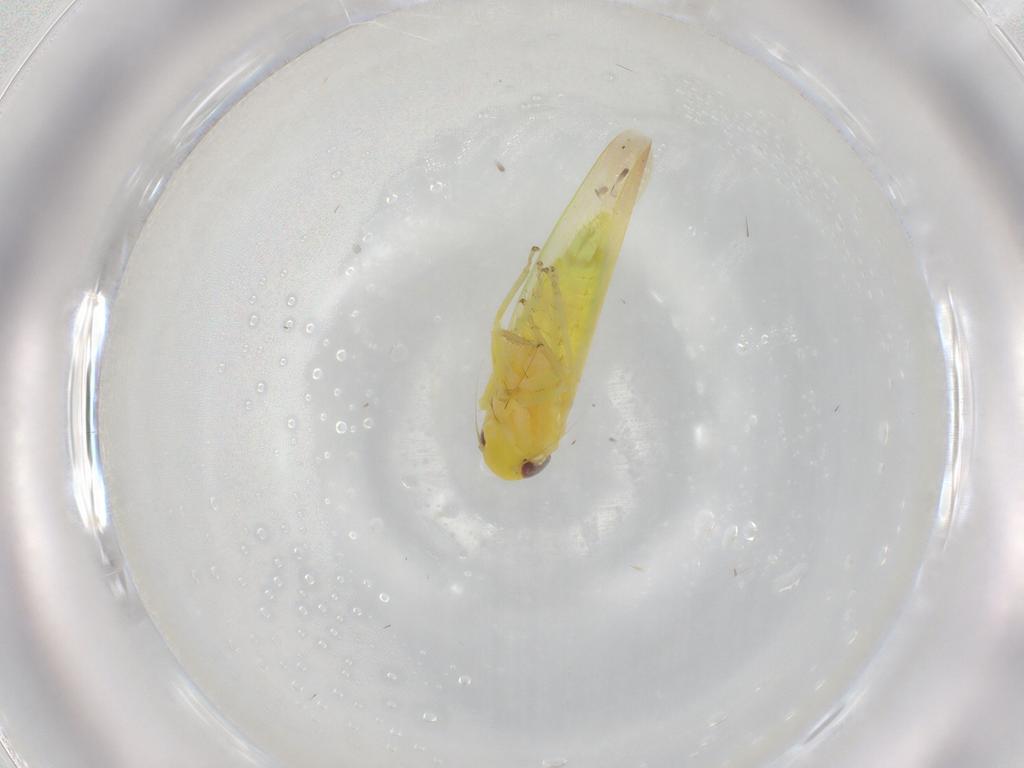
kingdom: Animalia
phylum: Arthropoda
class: Insecta
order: Hemiptera
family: Cicadellidae
